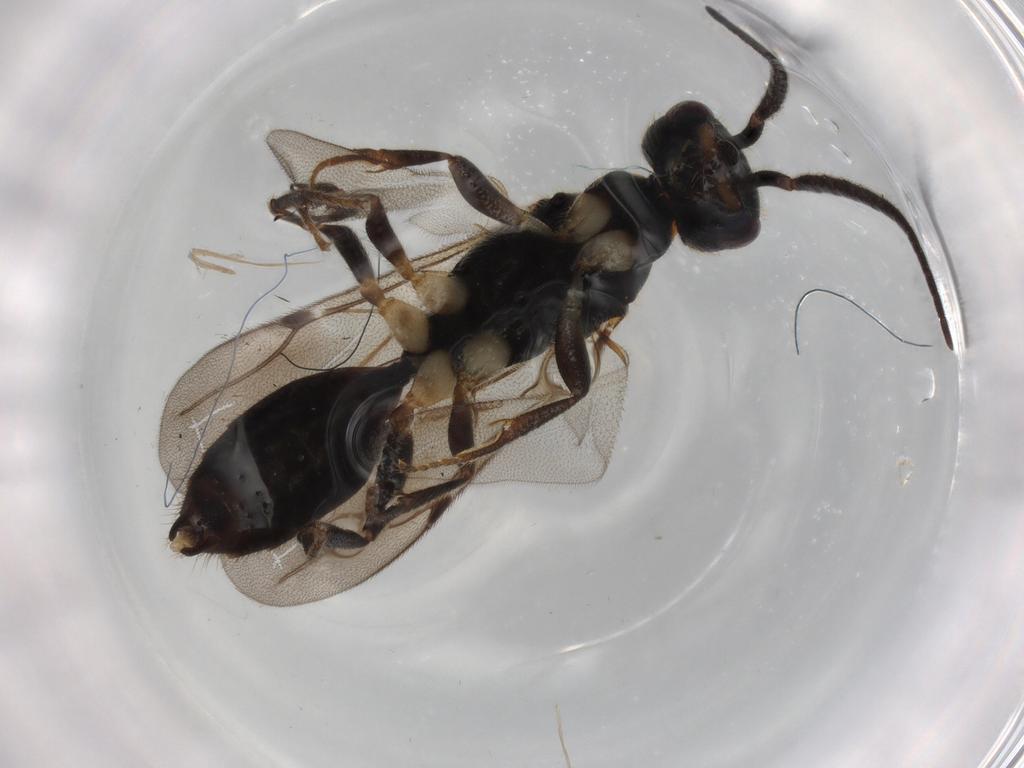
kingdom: Animalia
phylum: Arthropoda
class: Insecta
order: Hymenoptera
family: Bethylidae
